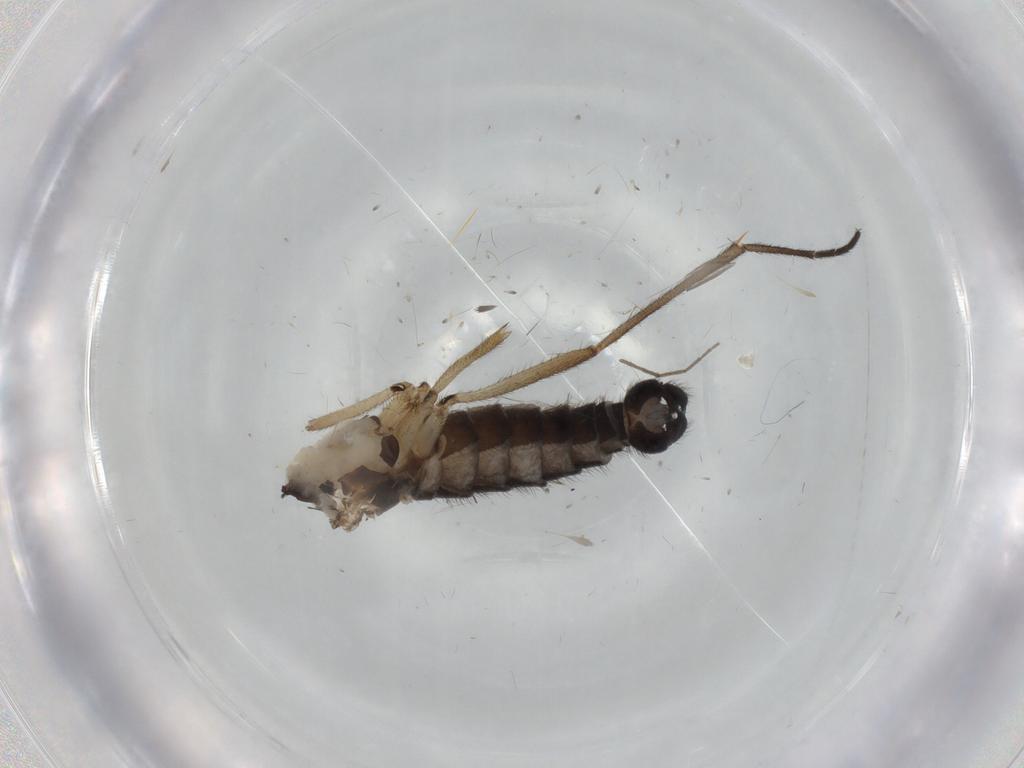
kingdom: Animalia
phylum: Arthropoda
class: Insecta
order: Diptera
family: Sciaridae
